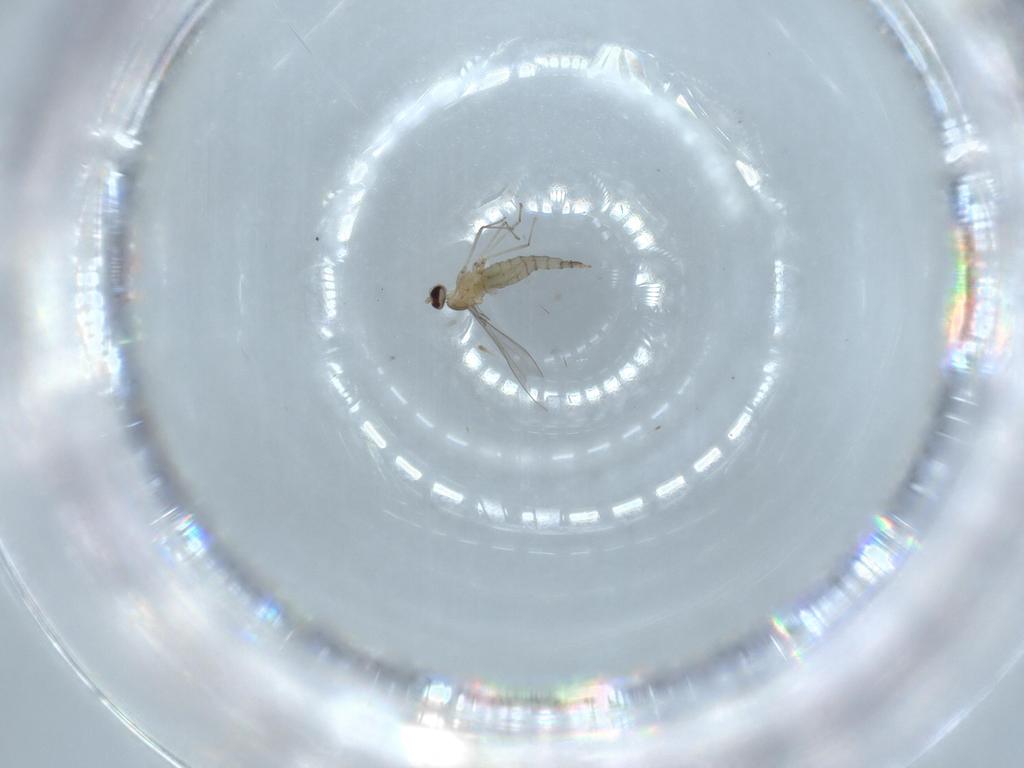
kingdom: Animalia
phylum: Arthropoda
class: Insecta
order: Diptera
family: Cecidomyiidae
